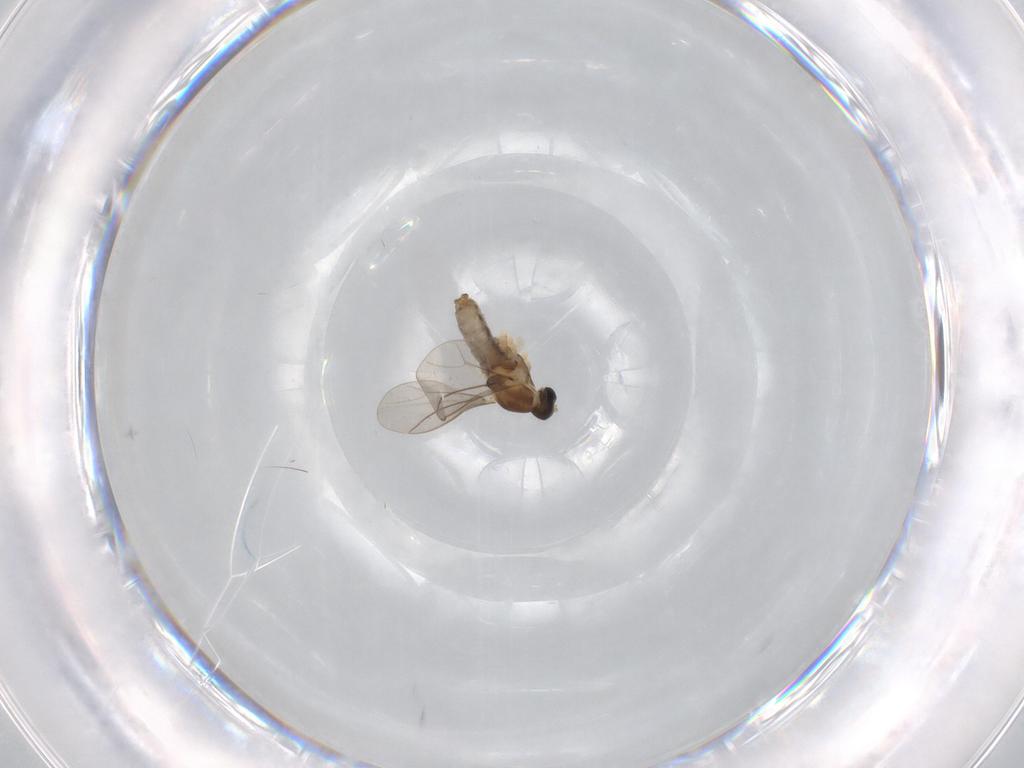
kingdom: Animalia
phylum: Arthropoda
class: Insecta
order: Diptera
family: Cecidomyiidae
